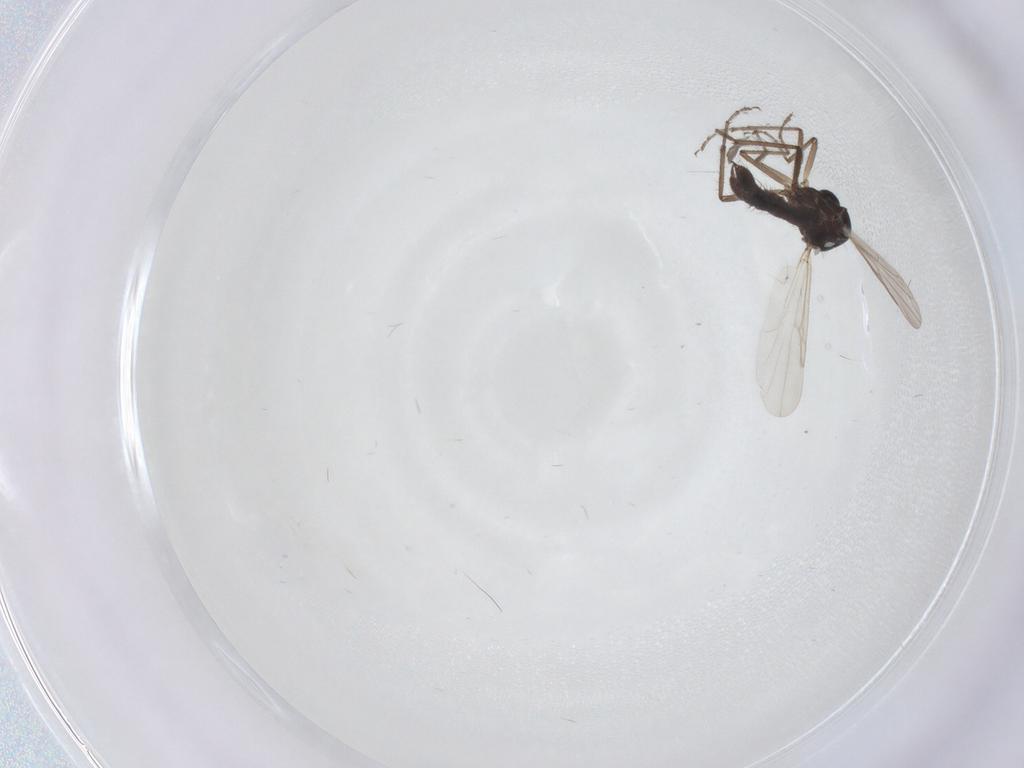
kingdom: Animalia
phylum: Arthropoda
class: Insecta
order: Diptera
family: Ceratopogonidae
